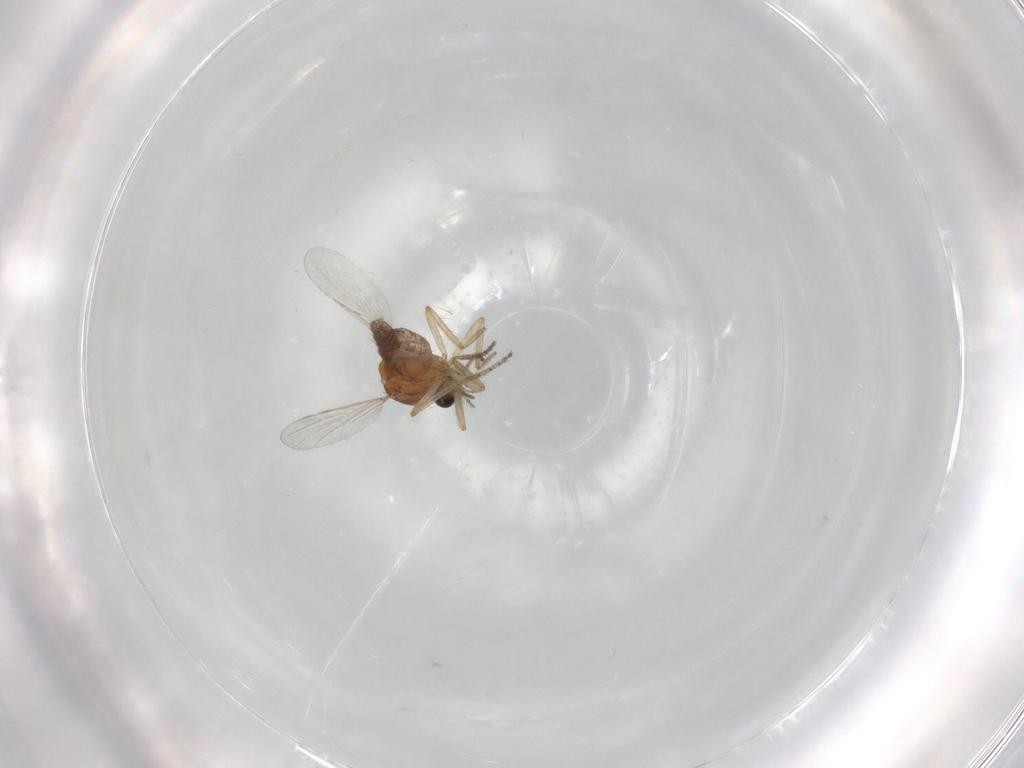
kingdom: Animalia
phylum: Arthropoda
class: Insecta
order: Diptera
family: Ceratopogonidae
